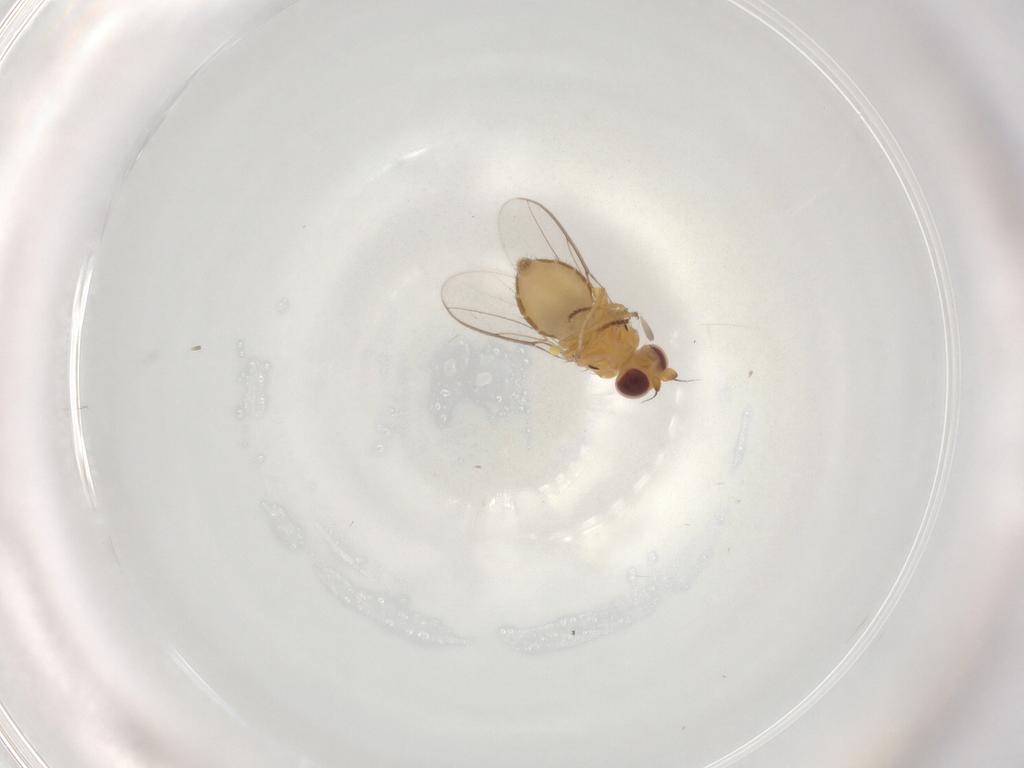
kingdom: Animalia
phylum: Arthropoda
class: Insecta
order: Diptera
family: Chloropidae
